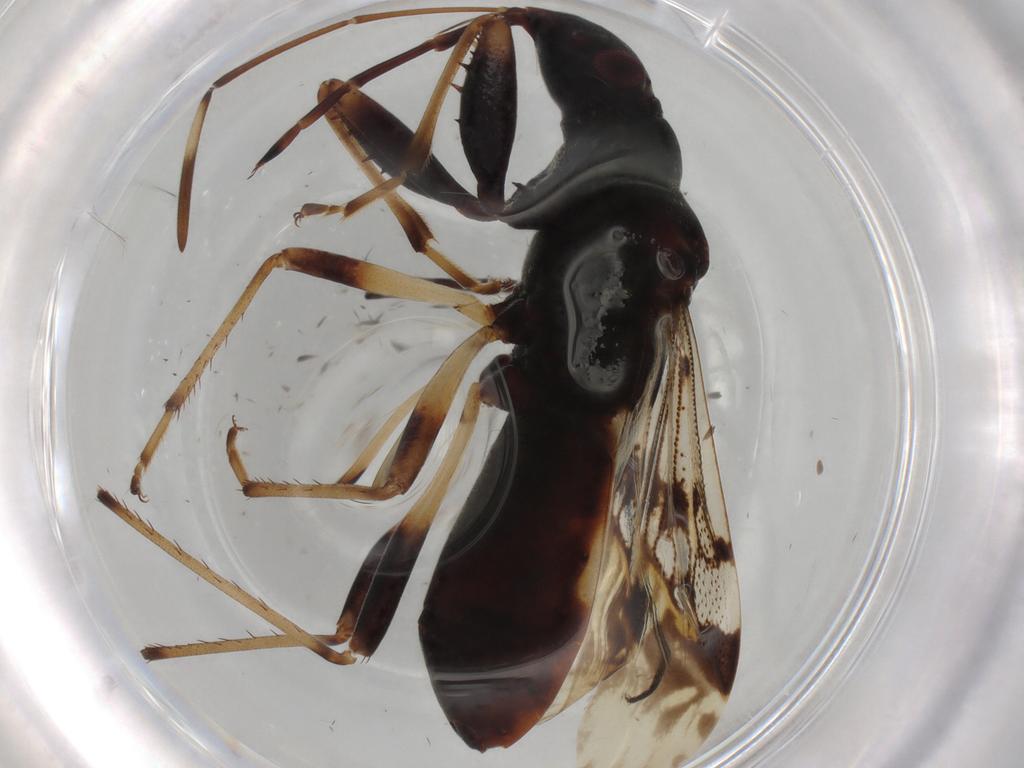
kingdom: Animalia
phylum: Arthropoda
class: Insecta
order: Hemiptera
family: Rhyparochromidae
